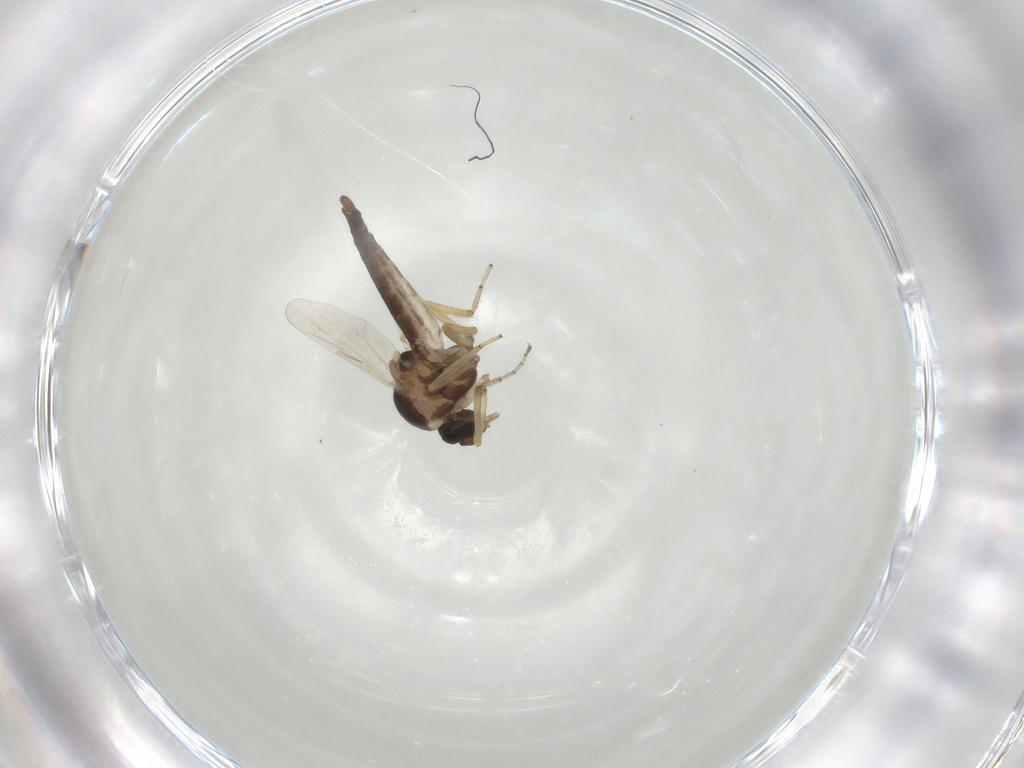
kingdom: Animalia
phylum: Arthropoda
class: Insecta
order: Diptera
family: Ceratopogonidae
